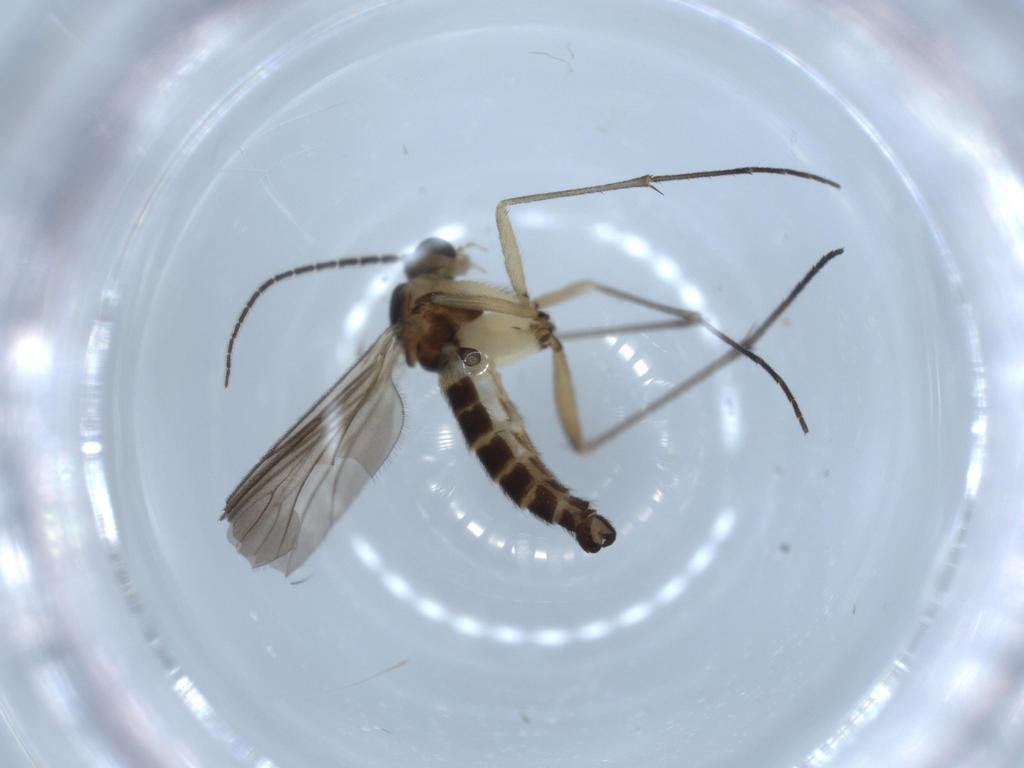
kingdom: Animalia
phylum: Arthropoda
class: Insecta
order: Diptera
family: Cecidomyiidae
